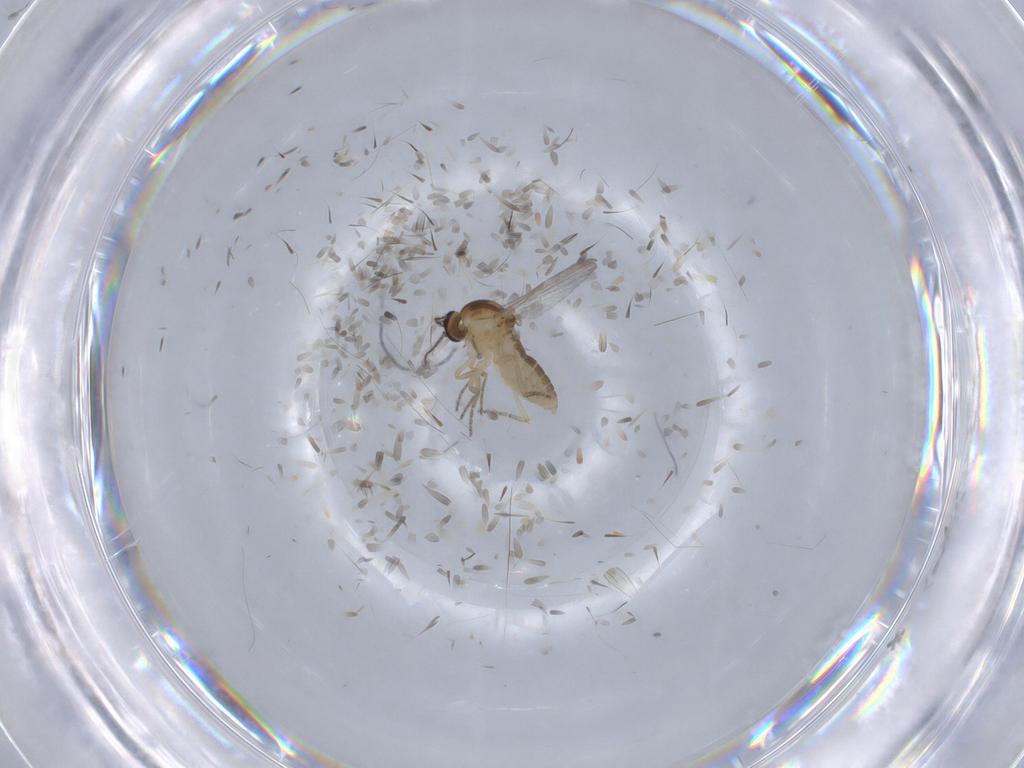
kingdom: Animalia
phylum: Arthropoda
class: Insecta
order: Diptera
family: Ceratopogonidae
